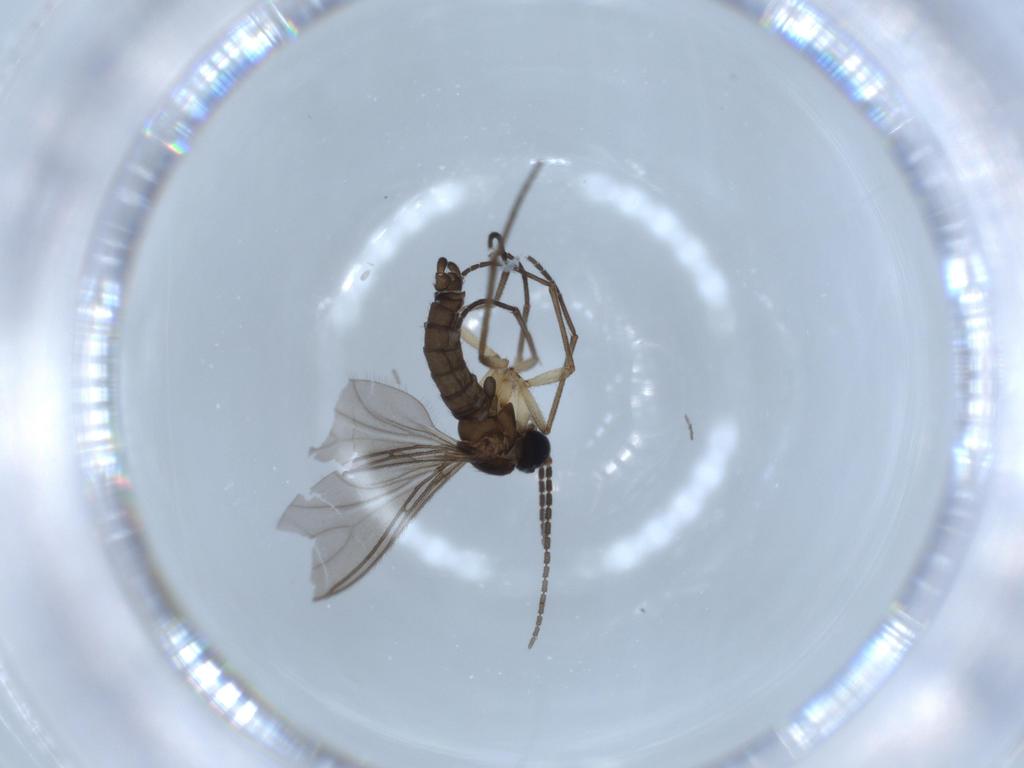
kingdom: Animalia
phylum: Arthropoda
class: Insecta
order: Diptera
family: Sciaridae
